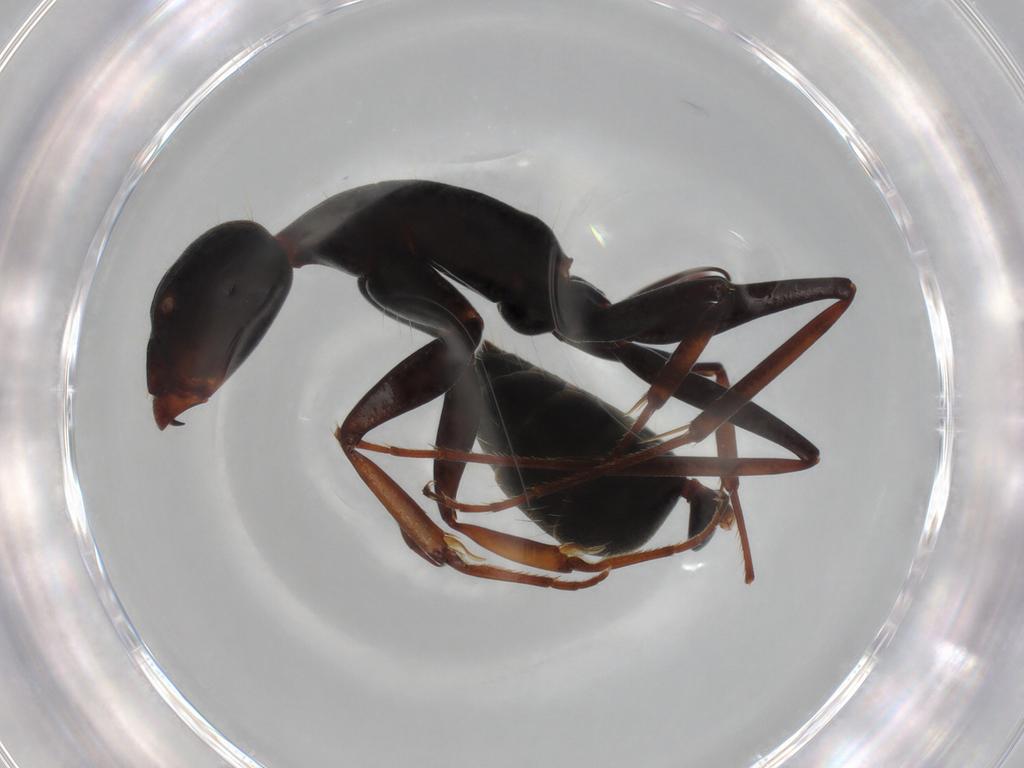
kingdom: Animalia
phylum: Arthropoda
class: Insecta
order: Hymenoptera
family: Formicidae
